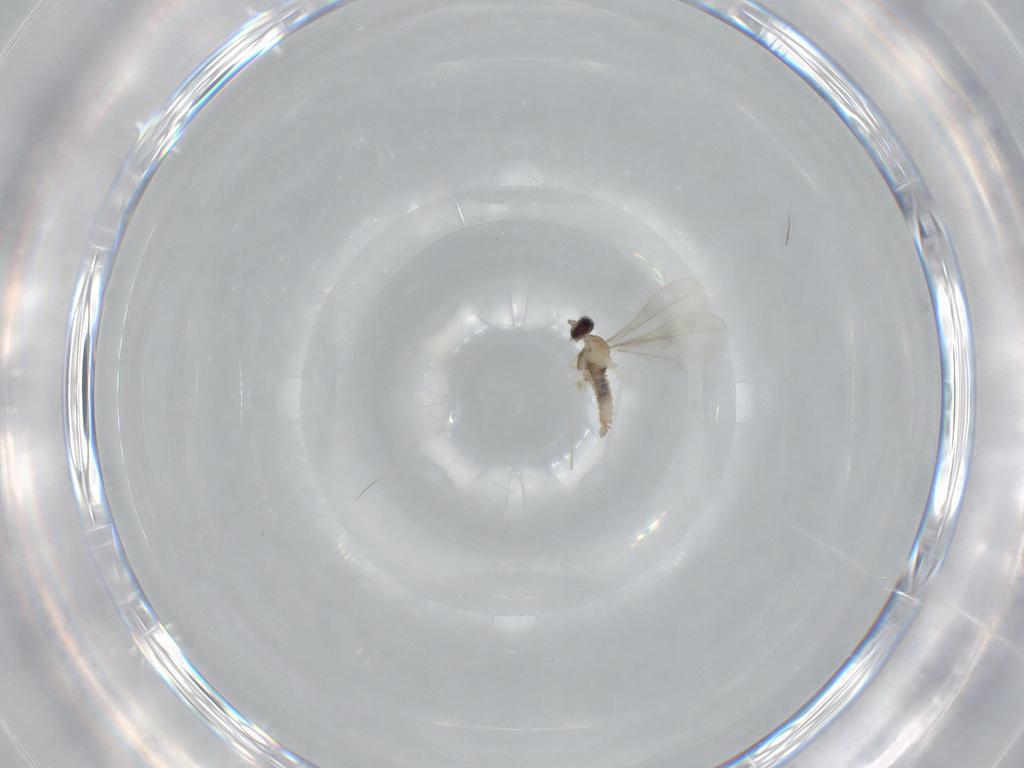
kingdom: Animalia
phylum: Arthropoda
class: Insecta
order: Diptera
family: Cecidomyiidae
